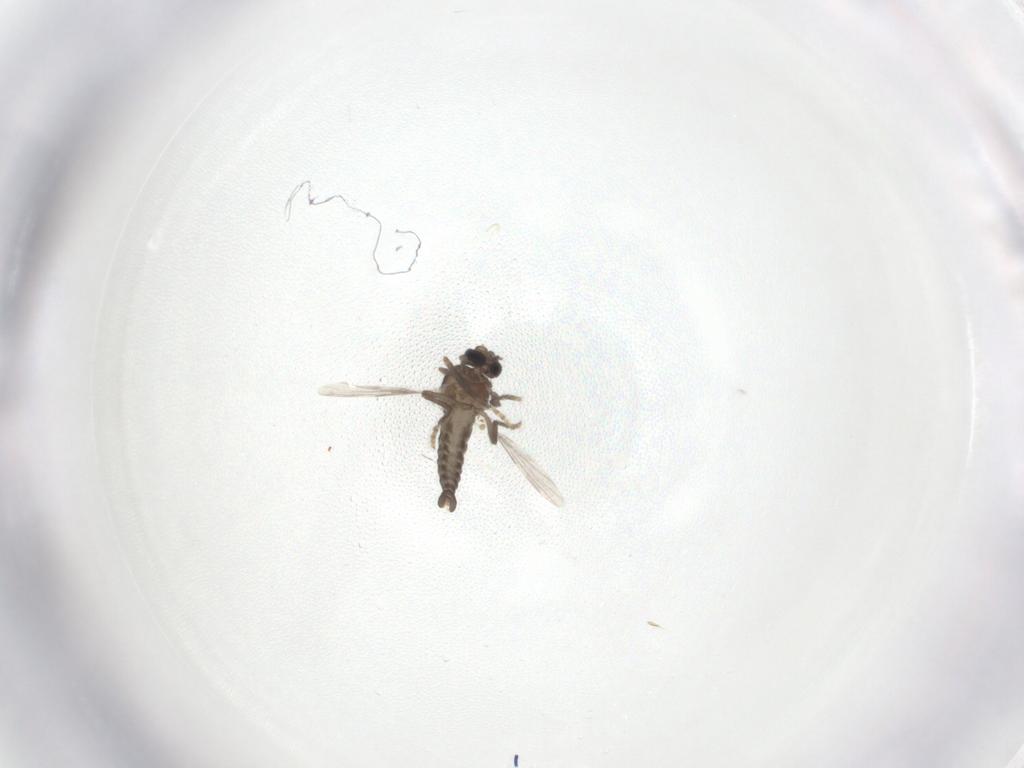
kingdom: Animalia
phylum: Arthropoda
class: Insecta
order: Diptera
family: Ceratopogonidae
